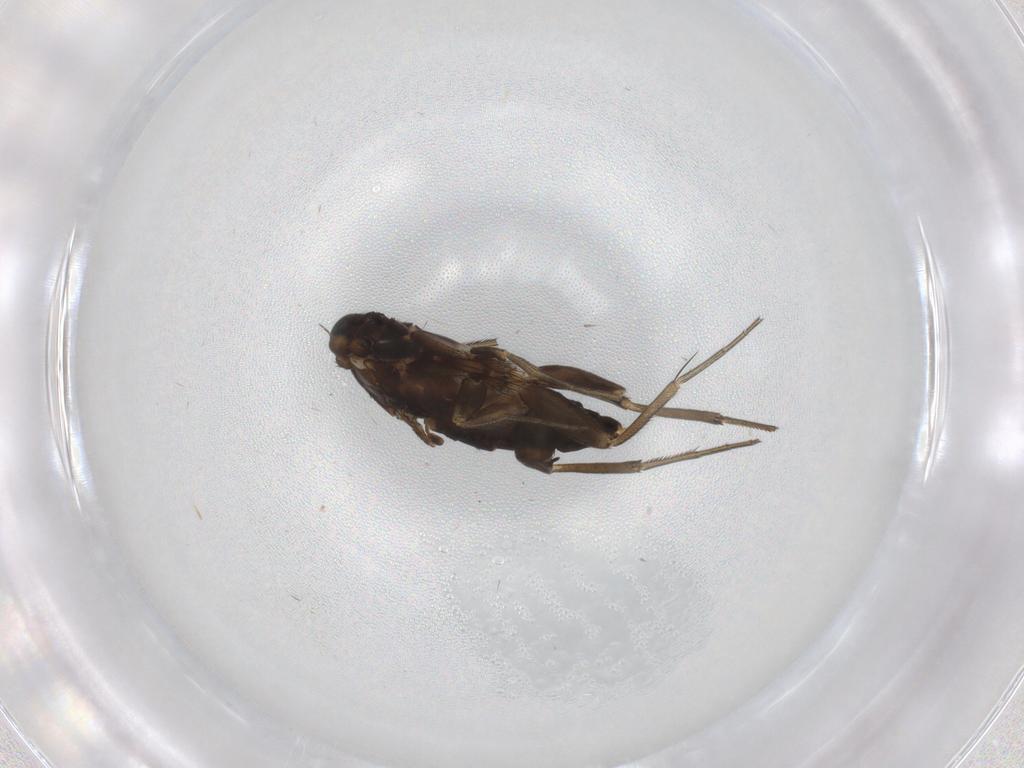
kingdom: Animalia
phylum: Arthropoda
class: Insecta
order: Diptera
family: Phoridae
